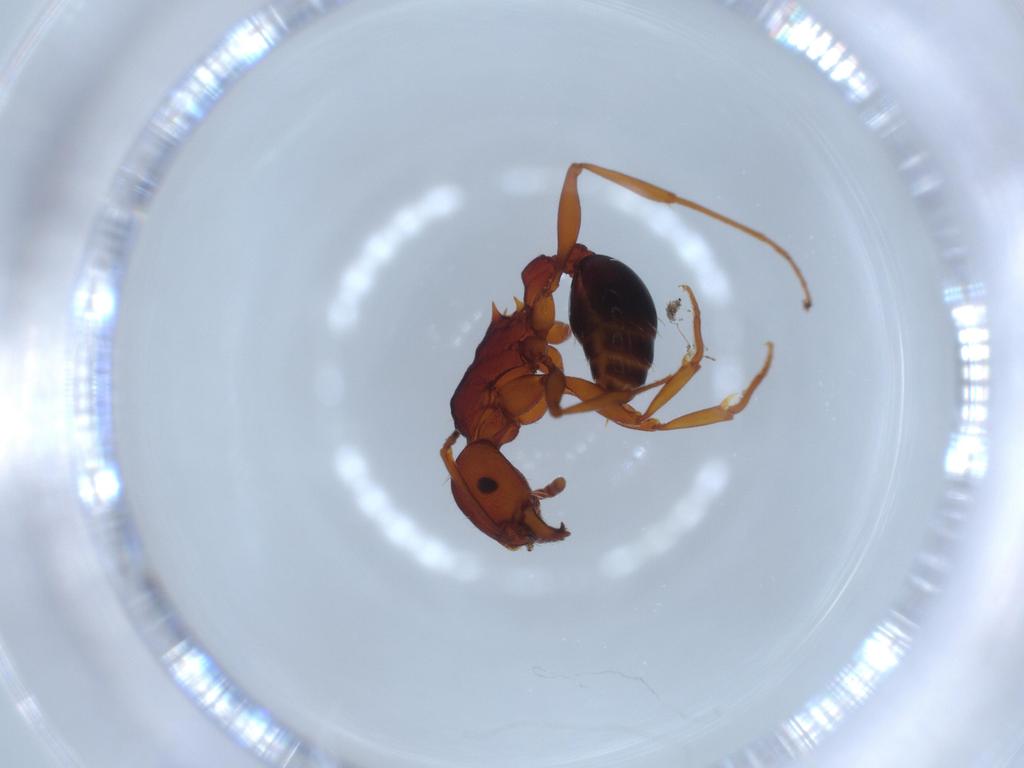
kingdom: Animalia
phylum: Arthropoda
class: Insecta
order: Hymenoptera
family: Formicidae
